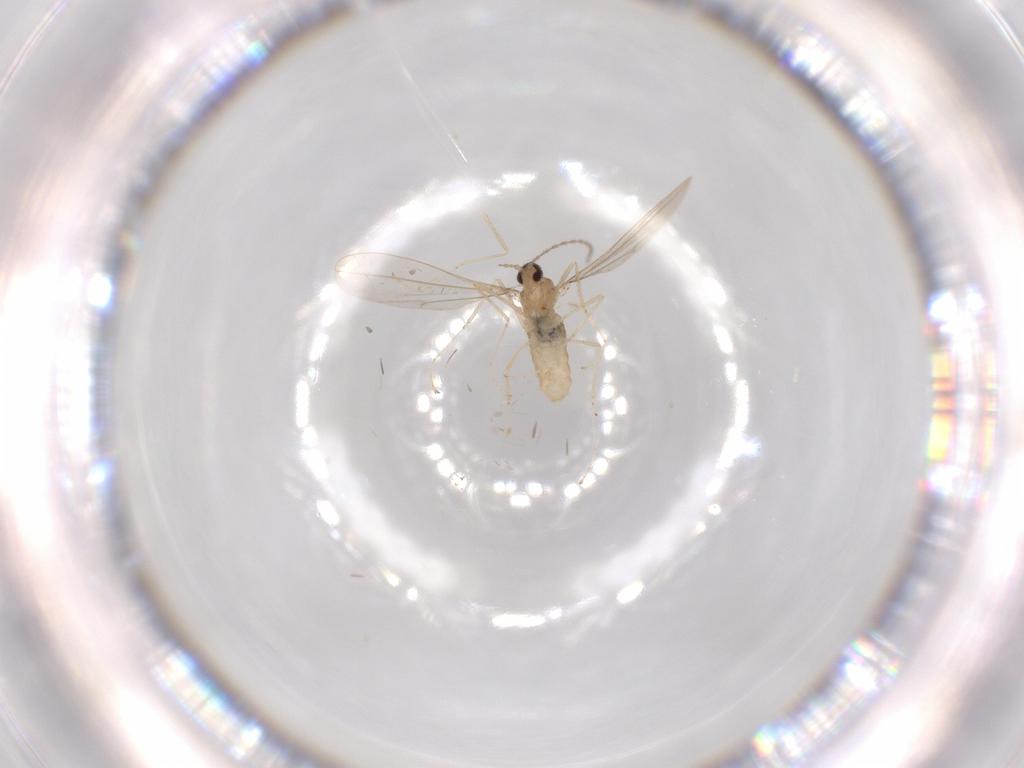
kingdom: Animalia
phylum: Arthropoda
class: Insecta
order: Diptera
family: Cecidomyiidae
